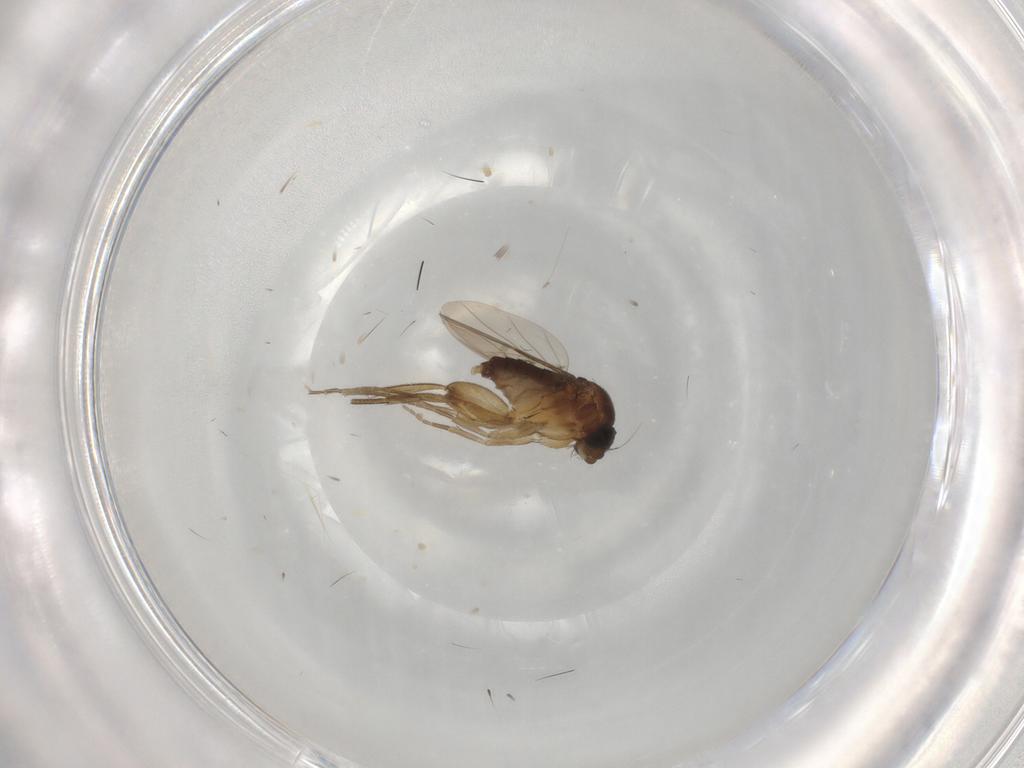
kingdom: Animalia
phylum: Arthropoda
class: Insecta
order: Diptera
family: Phoridae
